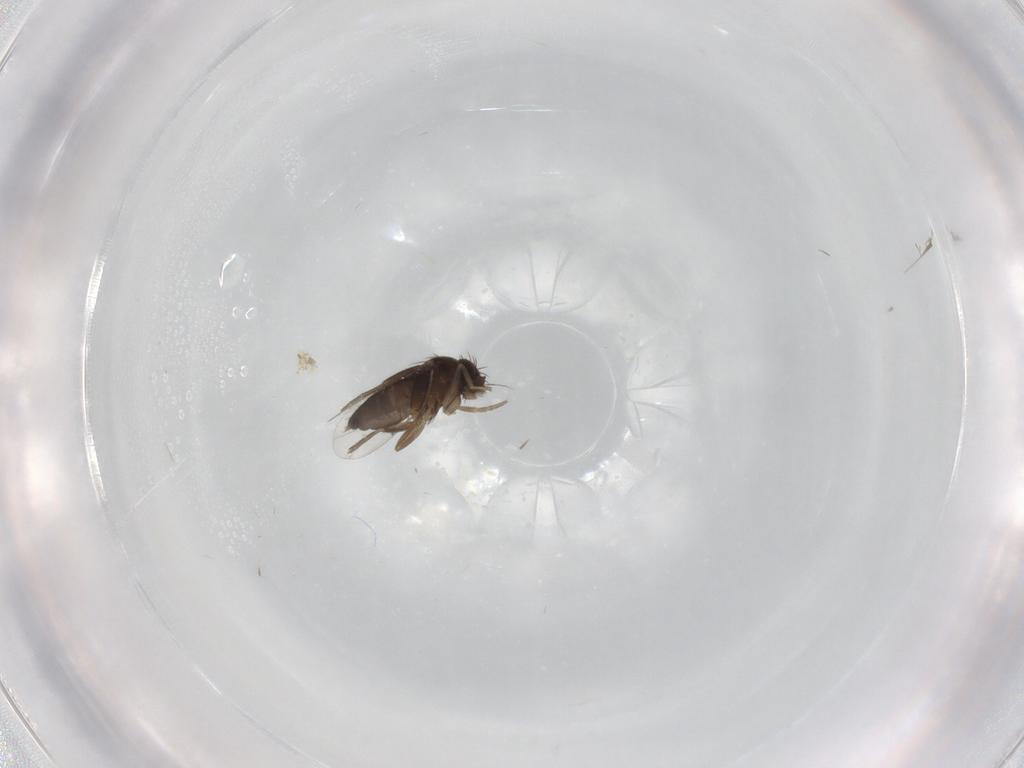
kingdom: Animalia
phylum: Arthropoda
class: Insecta
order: Diptera
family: Phoridae
